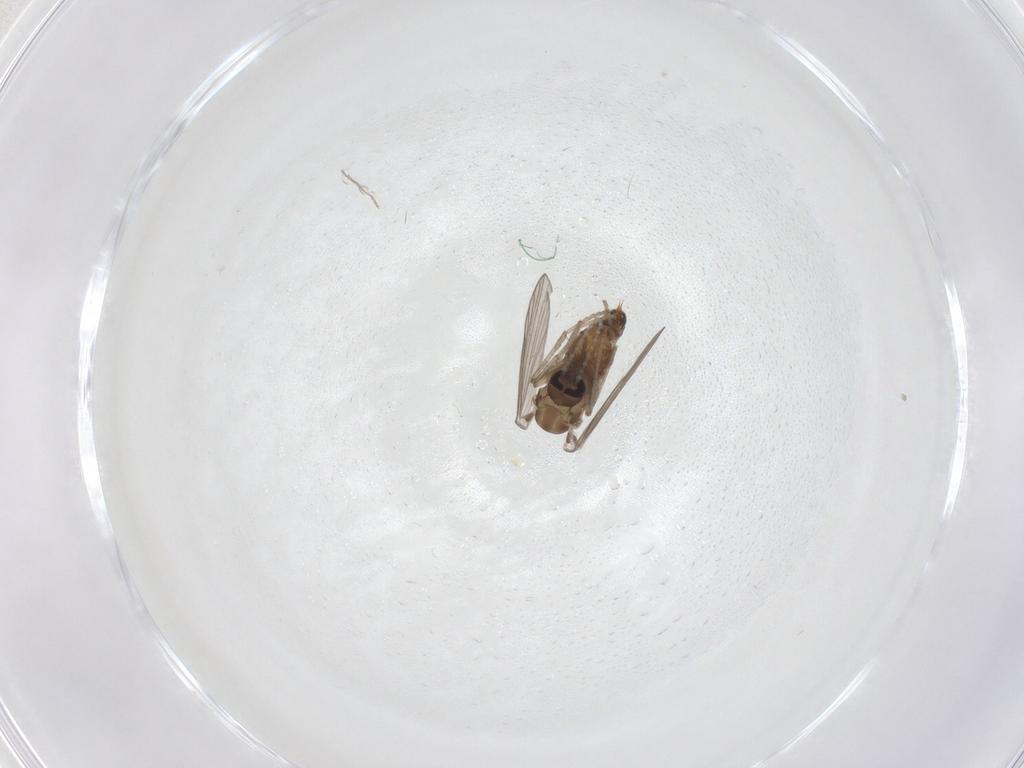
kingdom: Animalia
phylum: Arthropoda
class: Insecta
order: Diptera
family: Psychodidae
